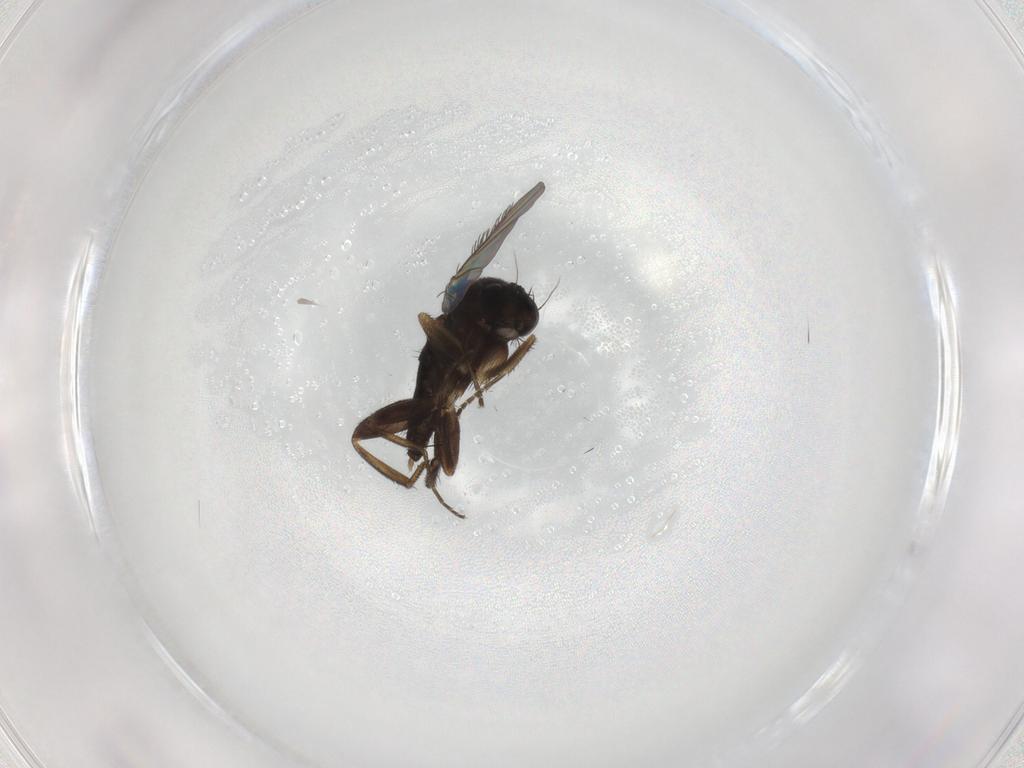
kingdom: Animalia
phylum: Arthropoda
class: Insecta
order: Diptera
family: Phoridae
